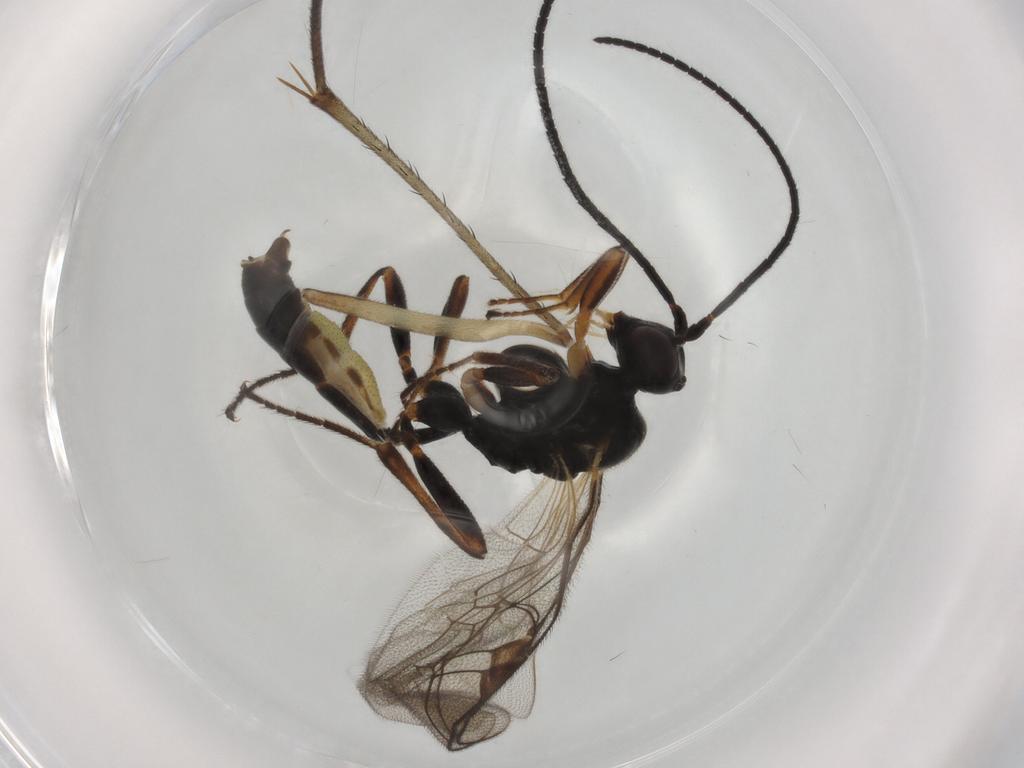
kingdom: Animalia
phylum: Arthropoda
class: Insecta
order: Hymenoptera
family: Ichneumonidae
